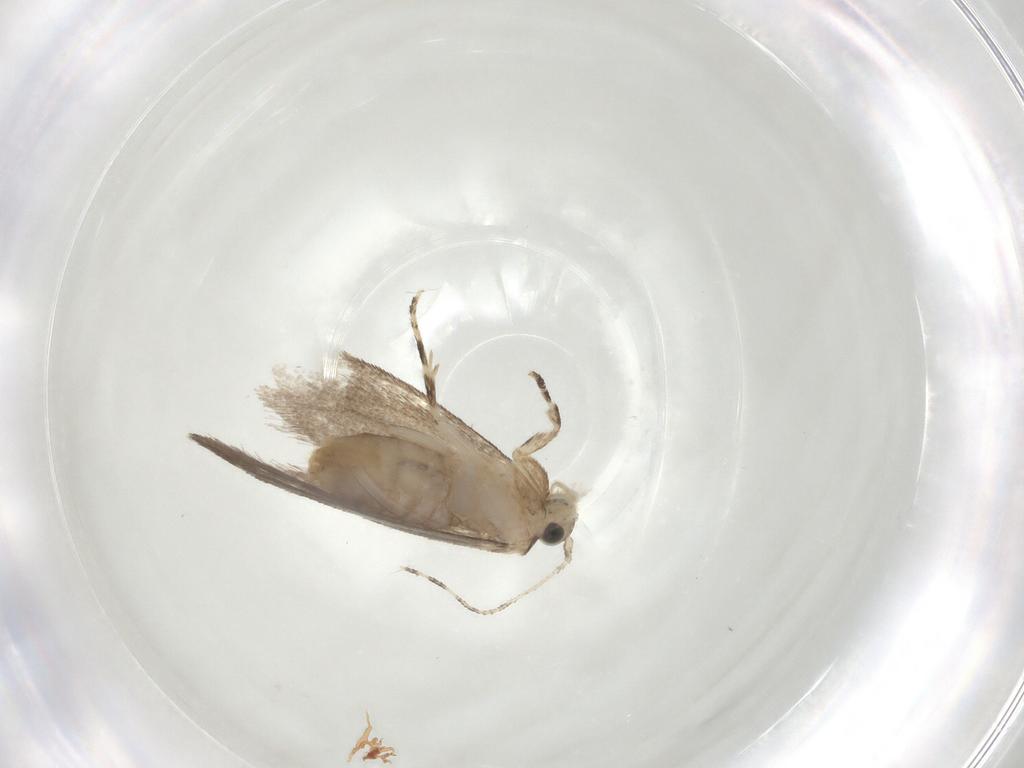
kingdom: Animalia
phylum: Arthropoda
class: Insecta
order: Lepidoptera
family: Tineidae
